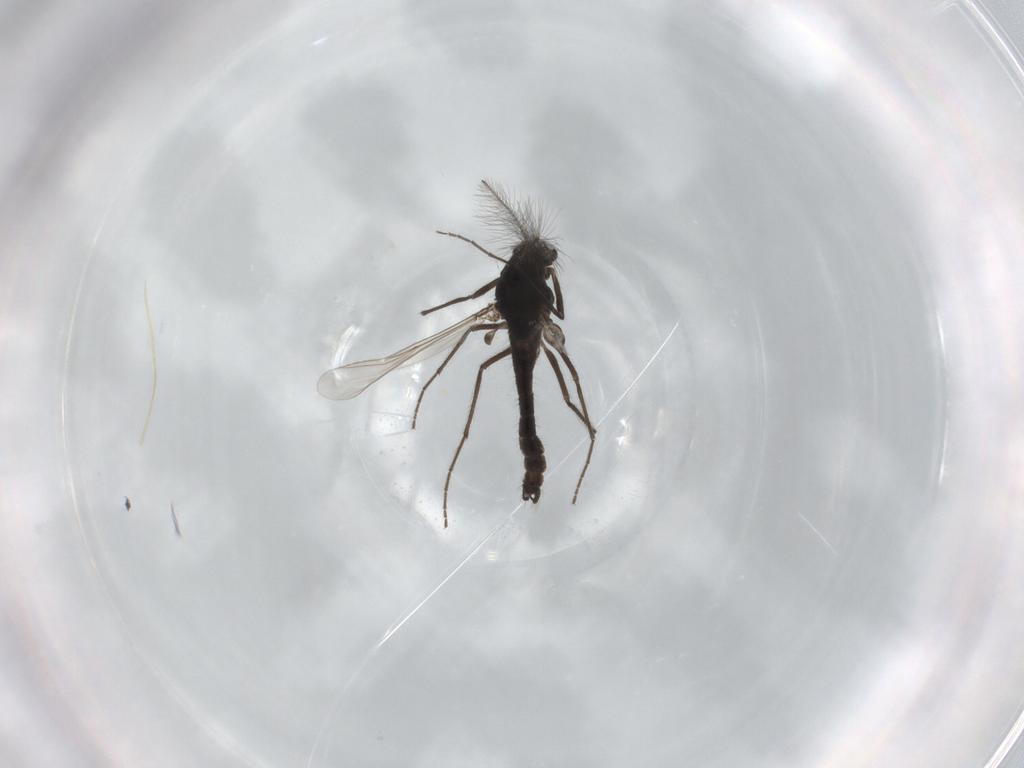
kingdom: Animalia
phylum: Arthropoda
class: Insecta
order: Diptera
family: Chironomidae
